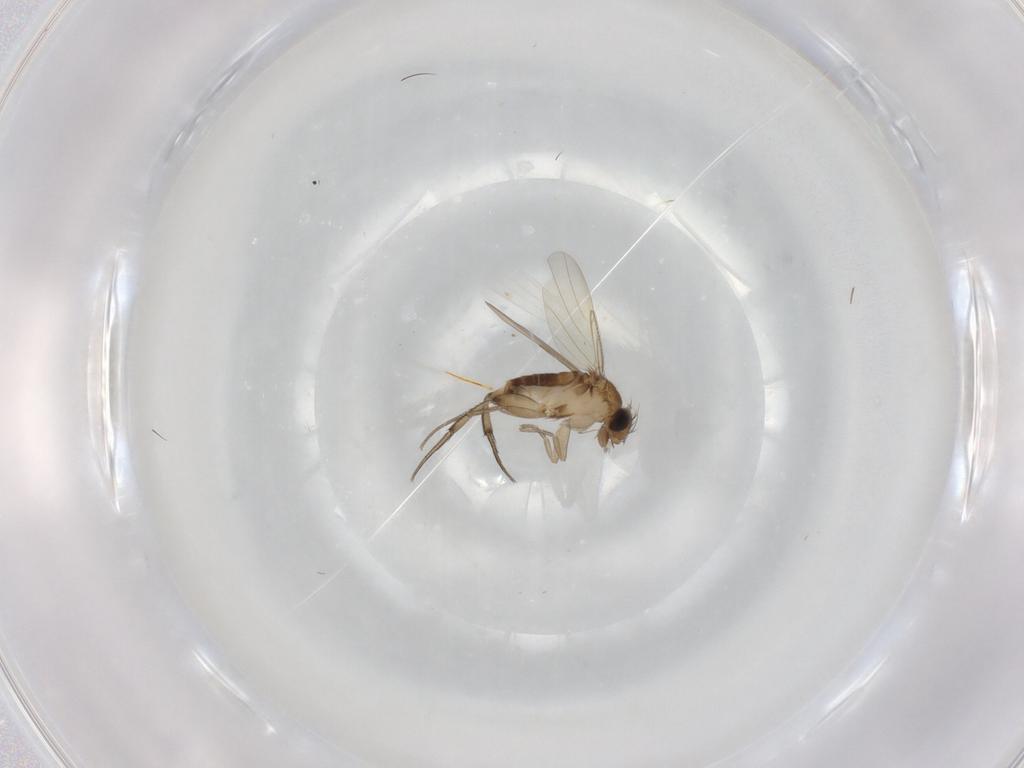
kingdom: Animalia
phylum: Arthropoda
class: Insecta
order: Diptera
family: Phoridae
